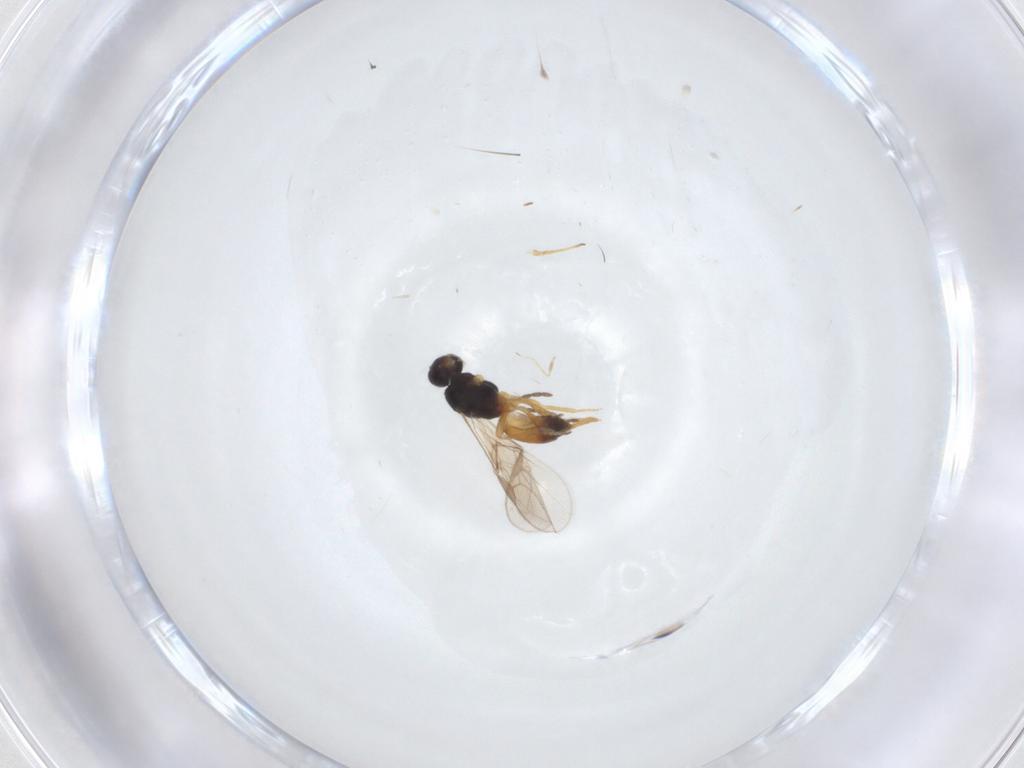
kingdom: Animalia
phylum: Arthropoda
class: Insecta
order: Hymenoptera
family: Braconidae
